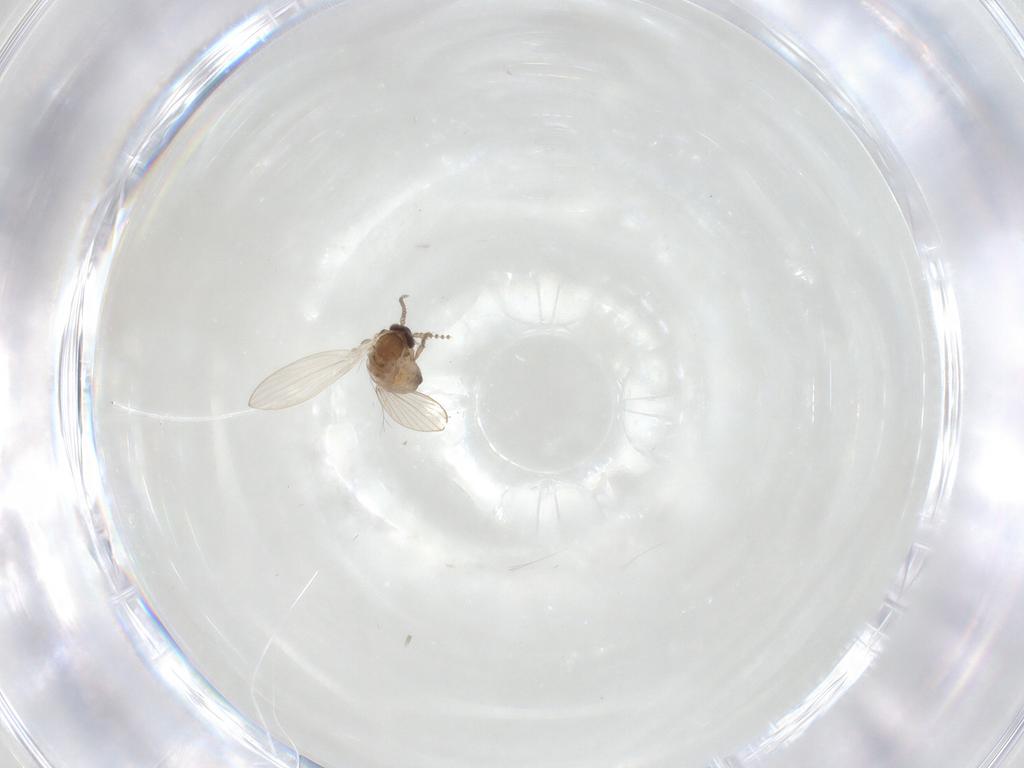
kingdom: Animalia
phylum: Arthropoda
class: Insecta
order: Diptera
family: Psychodidae
